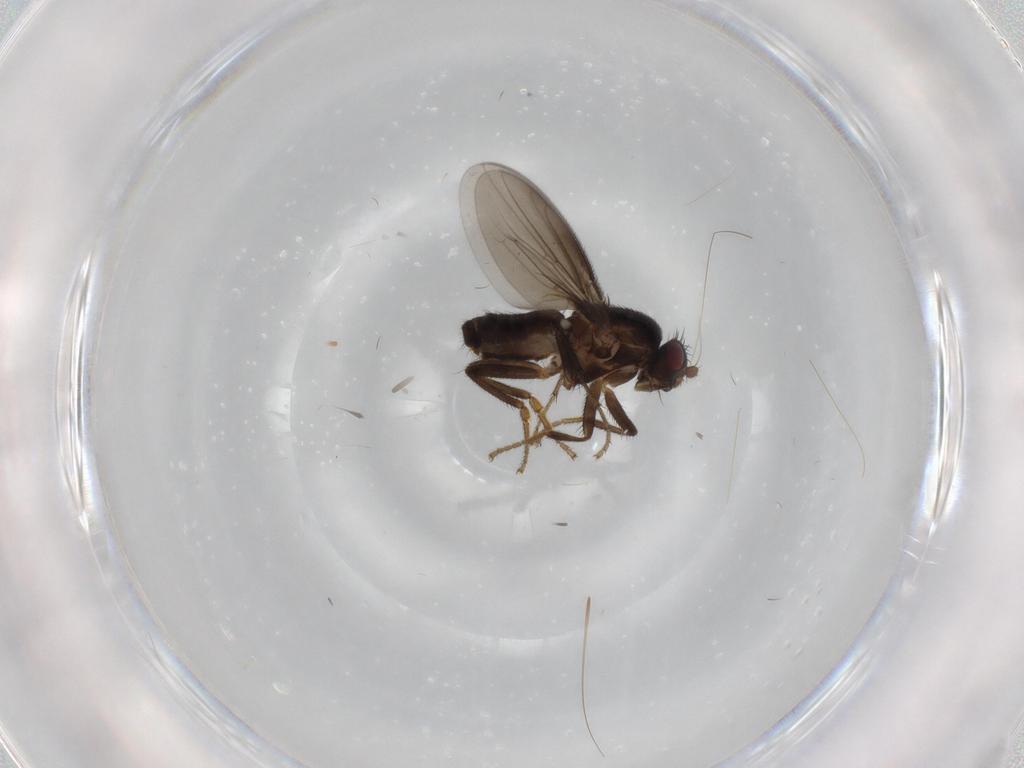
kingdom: Animalia
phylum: Arthropoda
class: Insecta
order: Diptera
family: Sphaeroceridae
